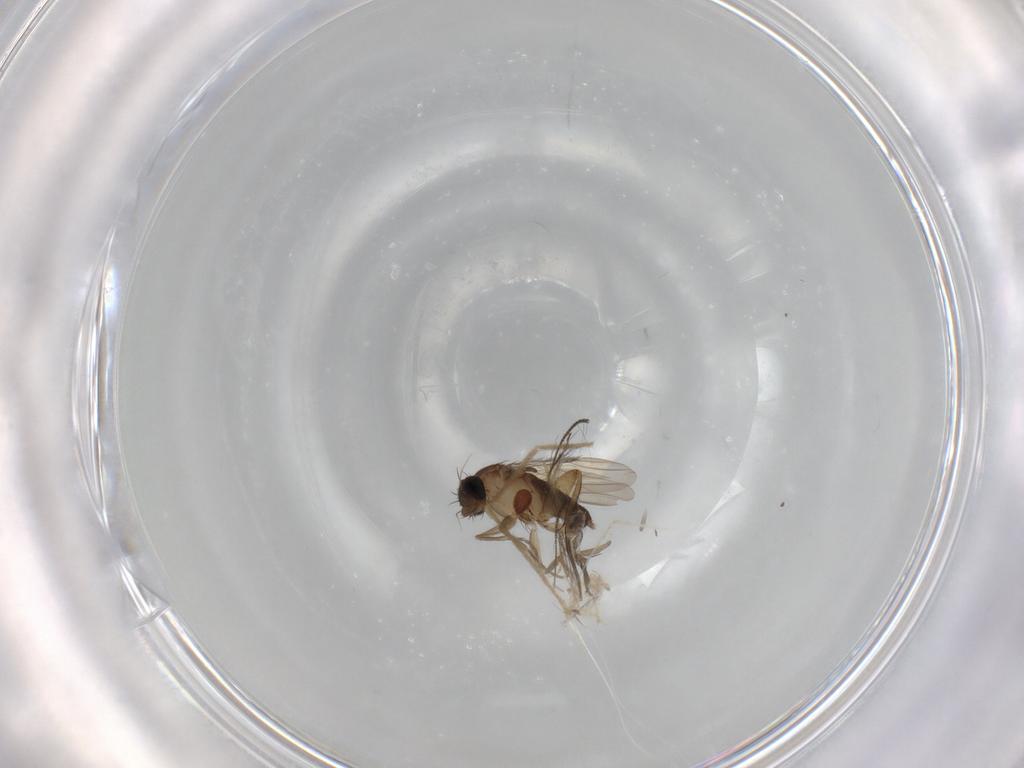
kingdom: Animalia
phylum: Arthropoda
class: Insecta
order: Diptera
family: Phoridae
